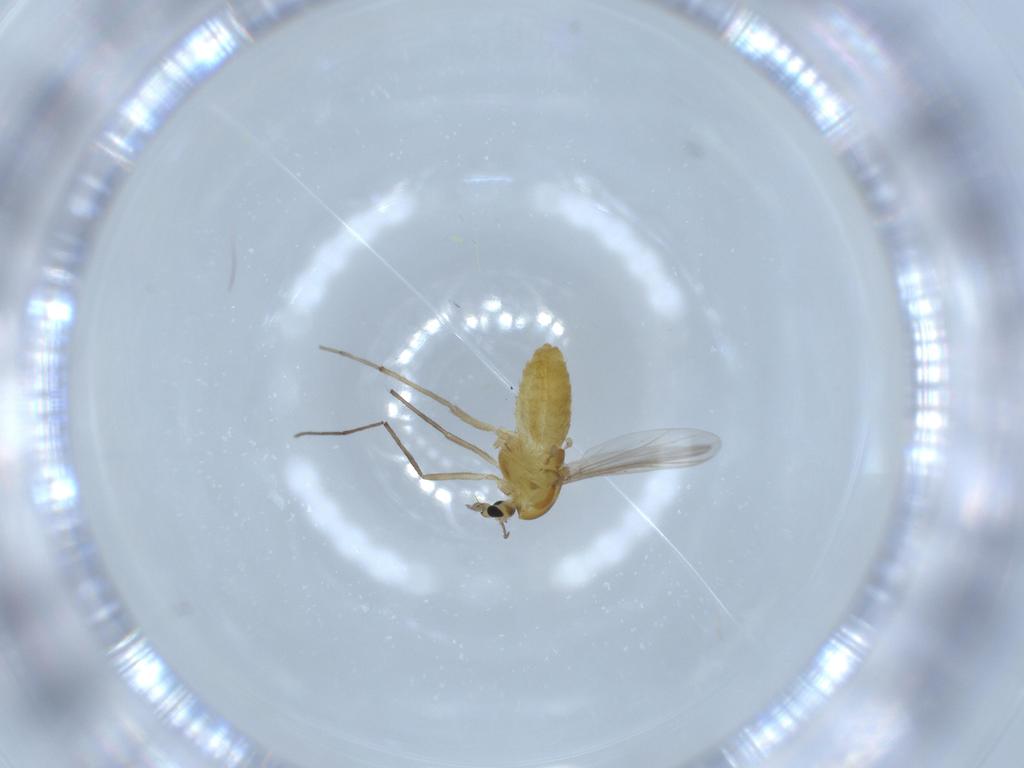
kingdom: Animalia
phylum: Arthropoda
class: Insecta
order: Diptera
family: Chironomidae
